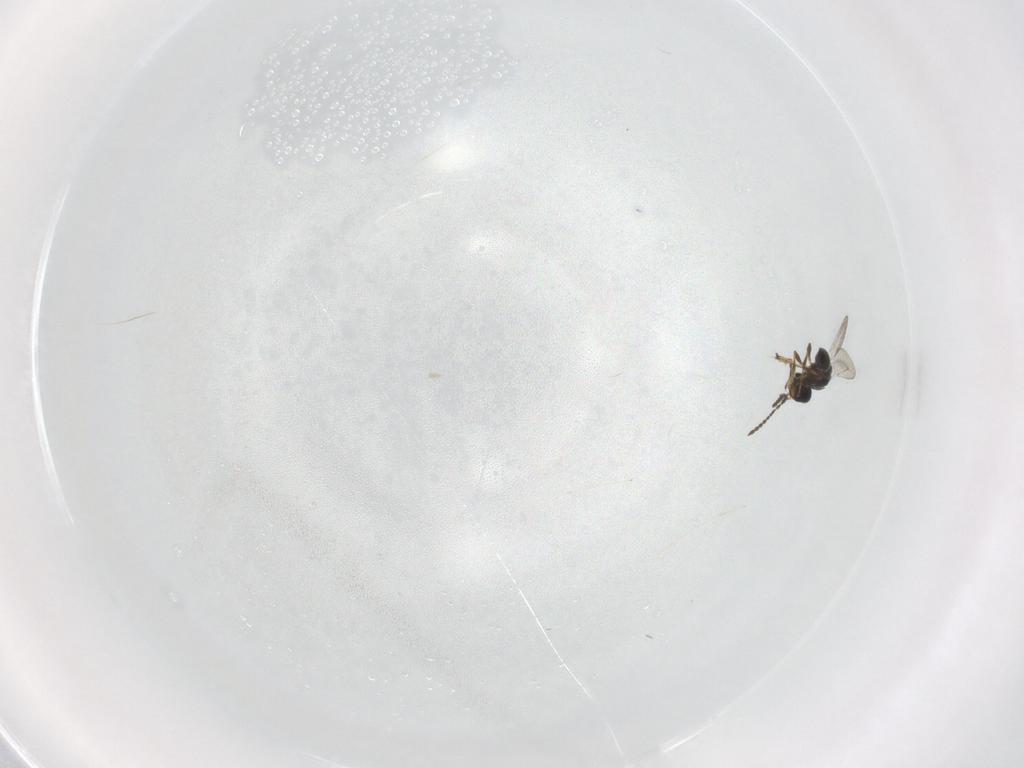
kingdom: Animalia
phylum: Arthropoda
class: Insecta
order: Hymenoptera
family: Platygastridae
